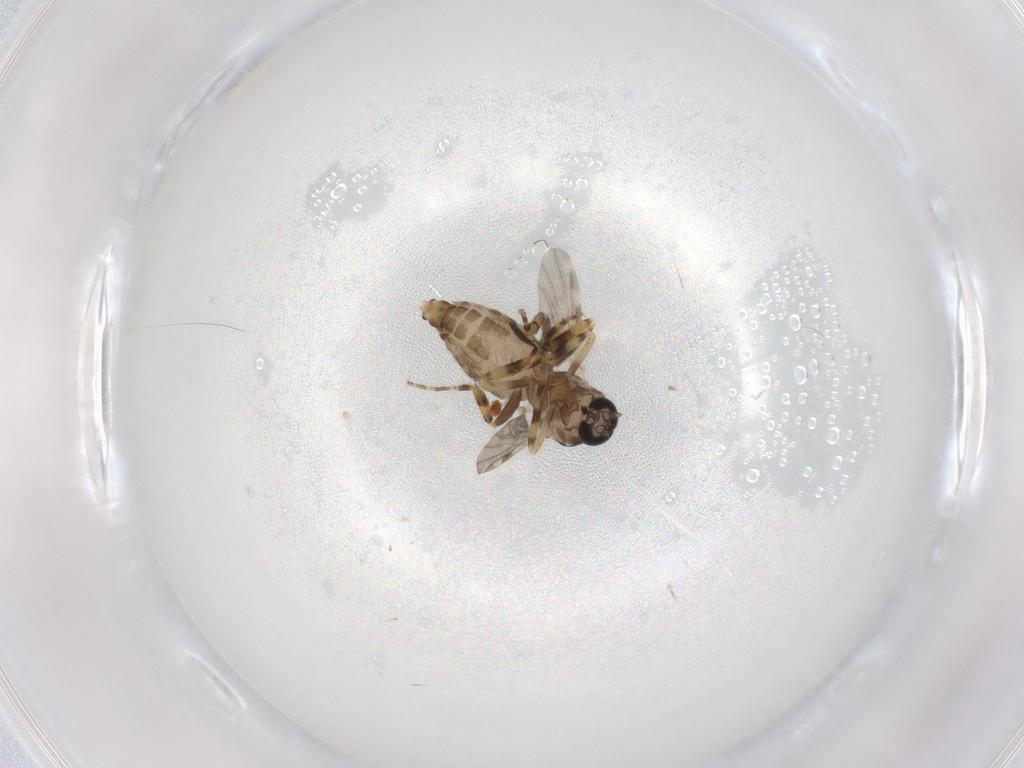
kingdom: Animalia
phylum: Arthropoda
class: Insecta
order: Diptera
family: Ceratopogonidae
